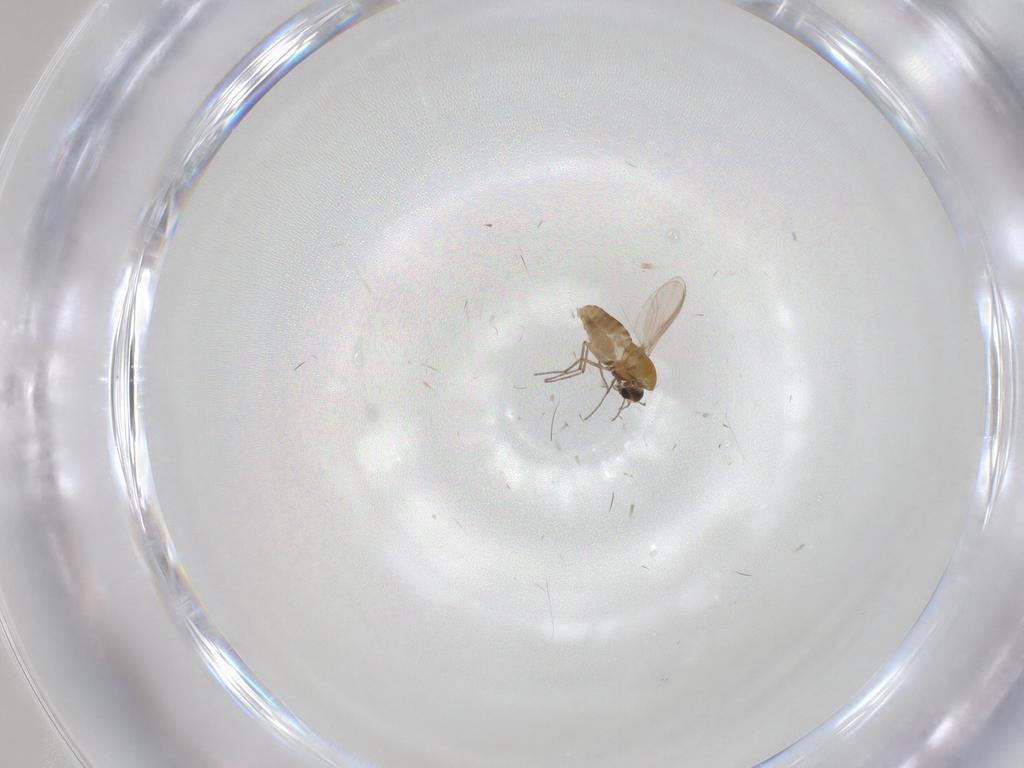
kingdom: Animalia
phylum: Arthropoda
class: Insecta
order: Diptera
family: Chironomidae
